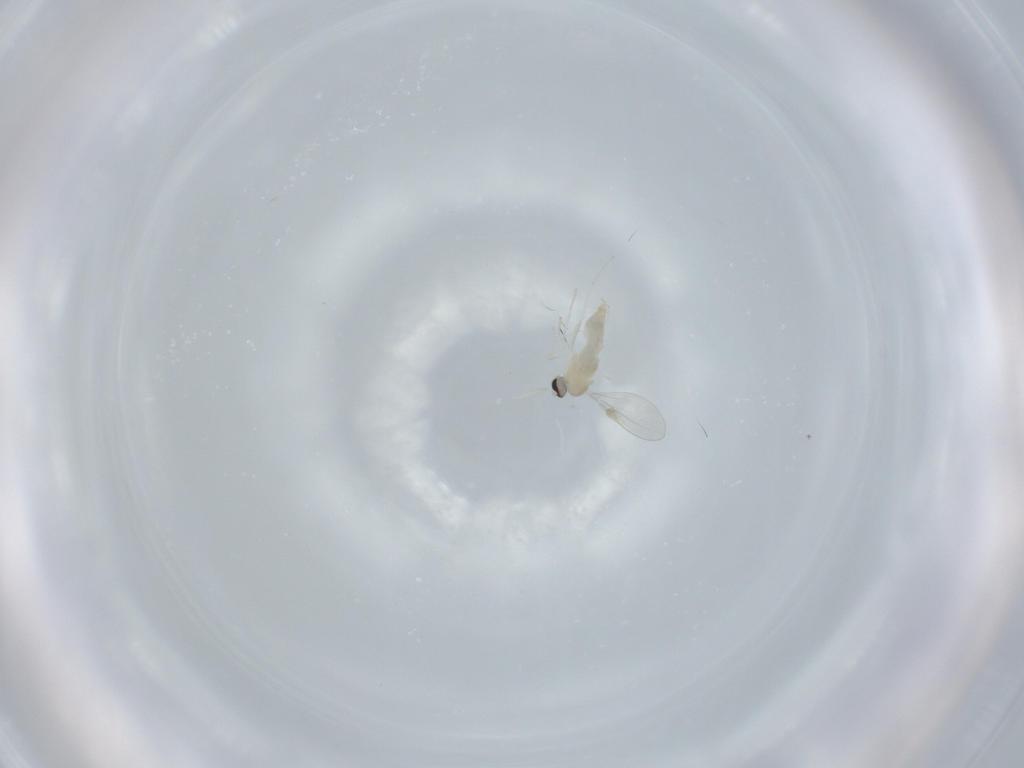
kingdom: Animalia
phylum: Arthropoda
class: Insecta
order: Diptera
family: Cecidomyiidae
